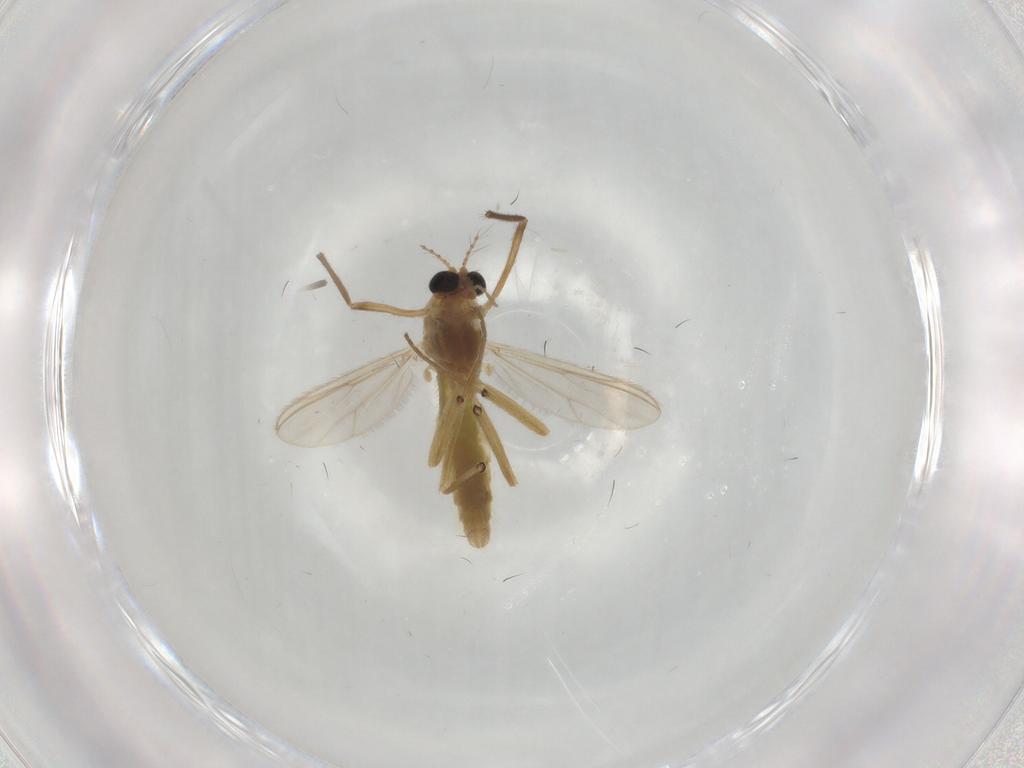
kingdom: Animalia
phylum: Arthropoda
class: Insecta
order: Diptera
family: Chironomidae
